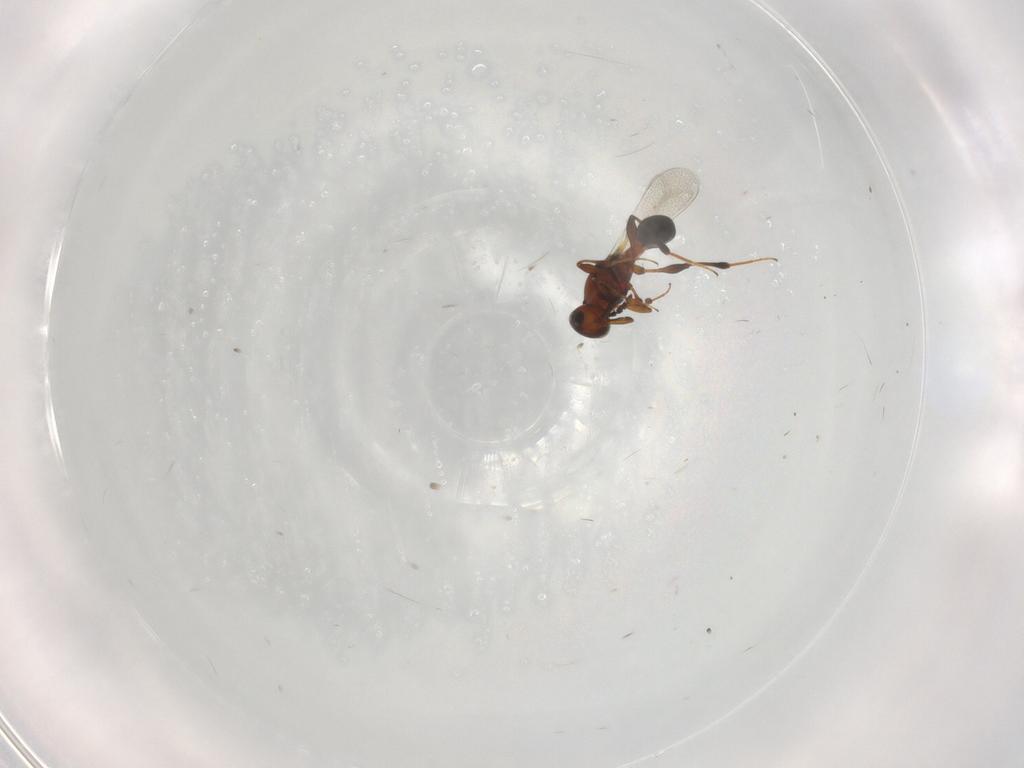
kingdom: Animalia
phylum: Arthropoda
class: Insecta
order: Hymenoptera
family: Platygastridae
